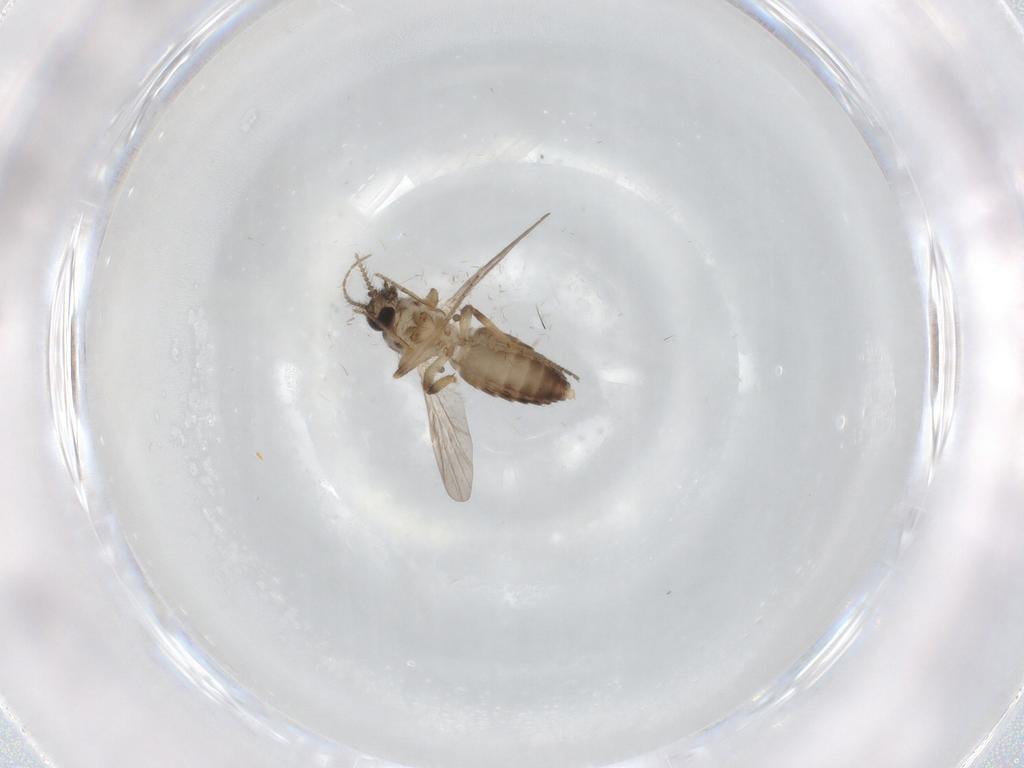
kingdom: Animalia
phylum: Arthropoda
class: Insecta
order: Diptera
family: Ceratopogonidae
